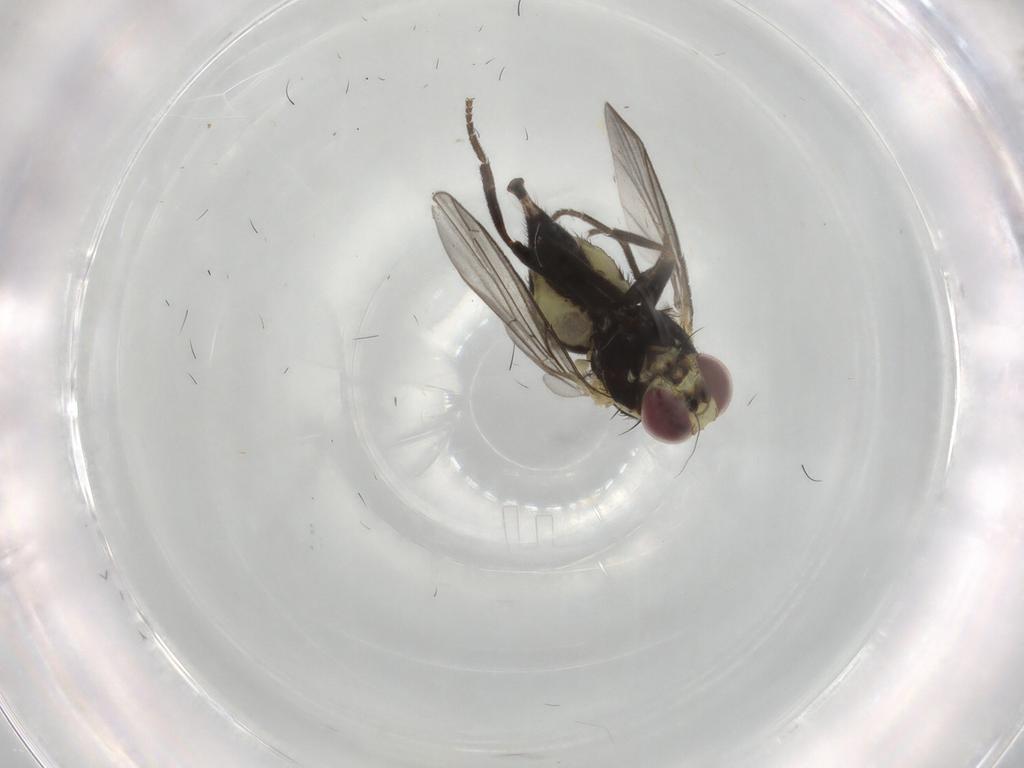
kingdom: Animalia
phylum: Arthropoda
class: Insecta
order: Diptera
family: Agromyzidae
